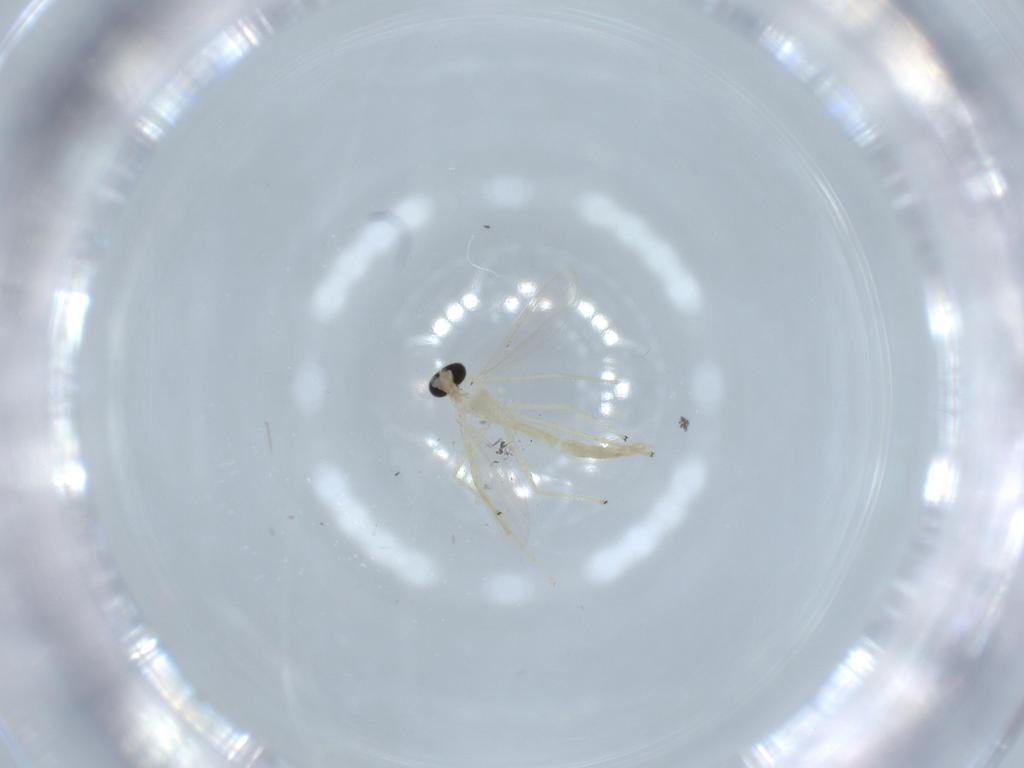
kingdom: Animalia
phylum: Arthropoda
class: Insecta
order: Diptera
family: Chironomidae
